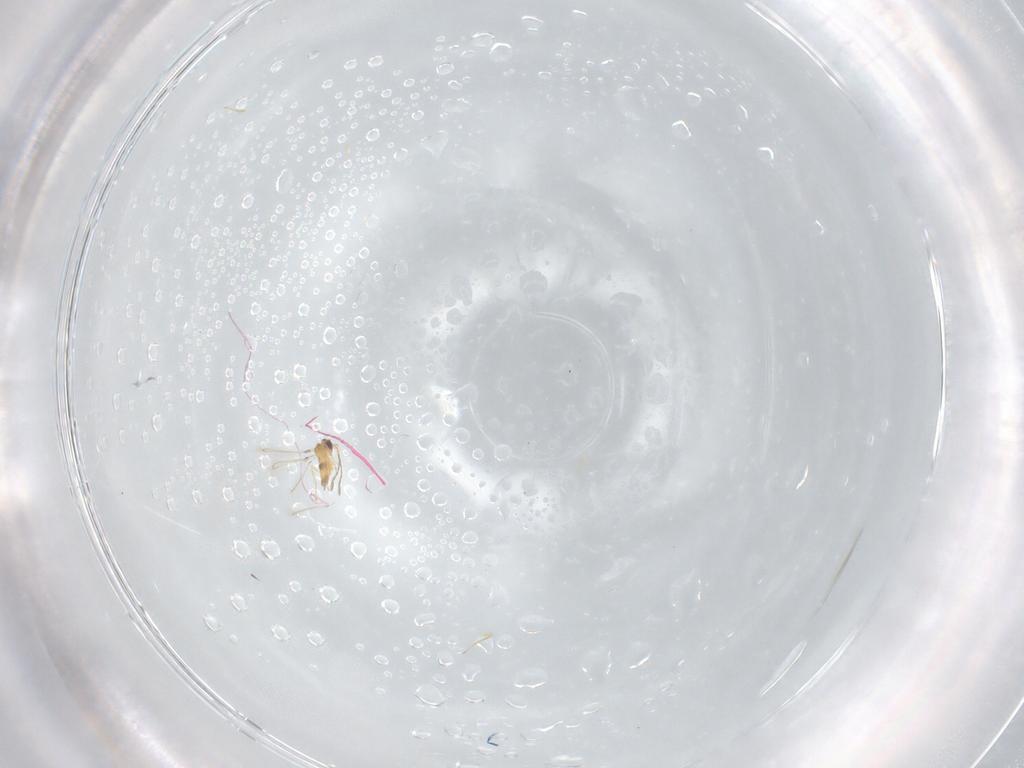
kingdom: Animalia
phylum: Arthropoda
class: Insecta
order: Hymenoptera
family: Mymaridae
